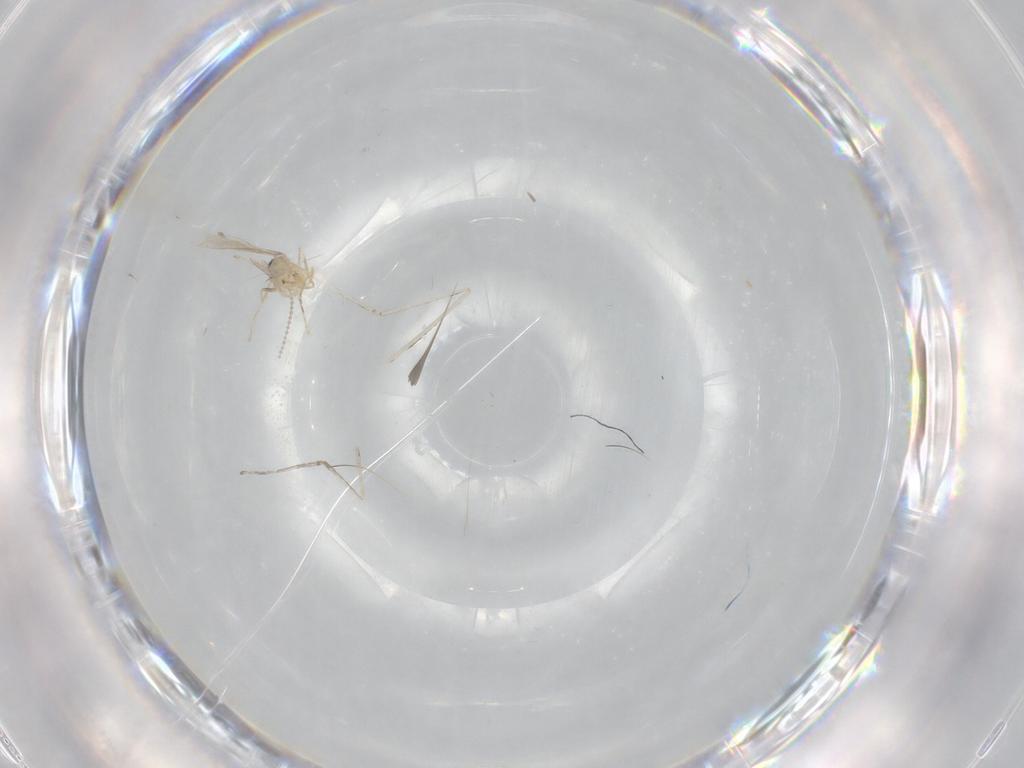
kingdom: Animalia
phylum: Arthropoda
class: Insecta
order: Diptera
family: Cecidomyiidae
